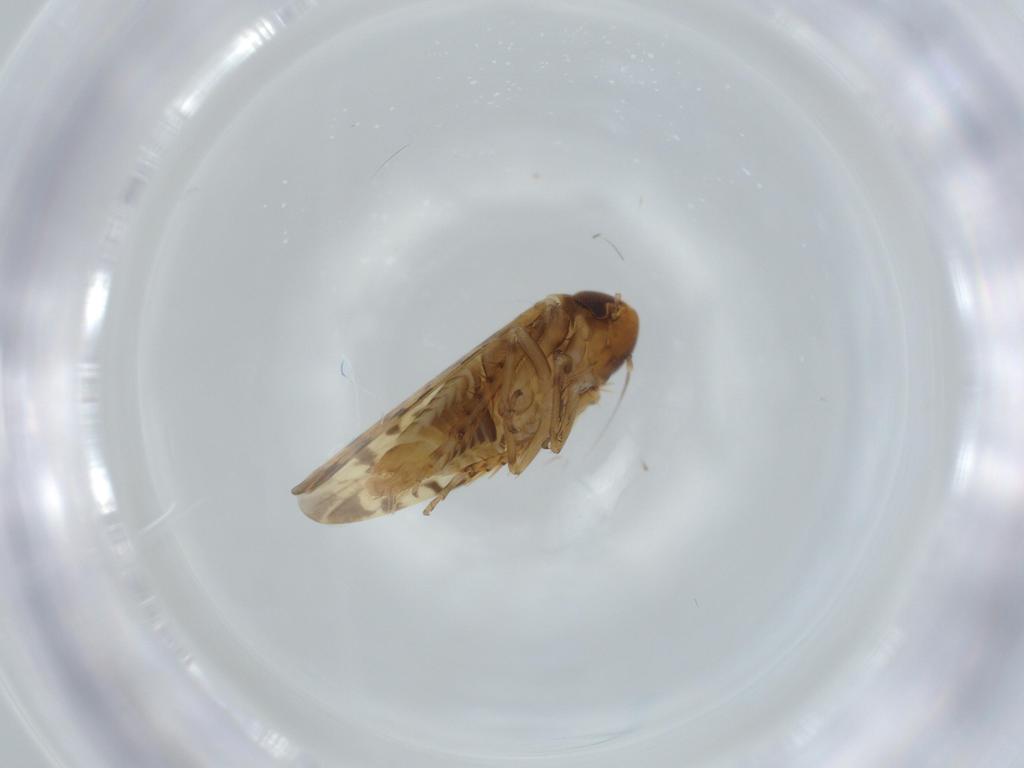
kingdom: Animalia
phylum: Arthropoda
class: Insecta
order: Hemiptera
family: Cicadellidae
